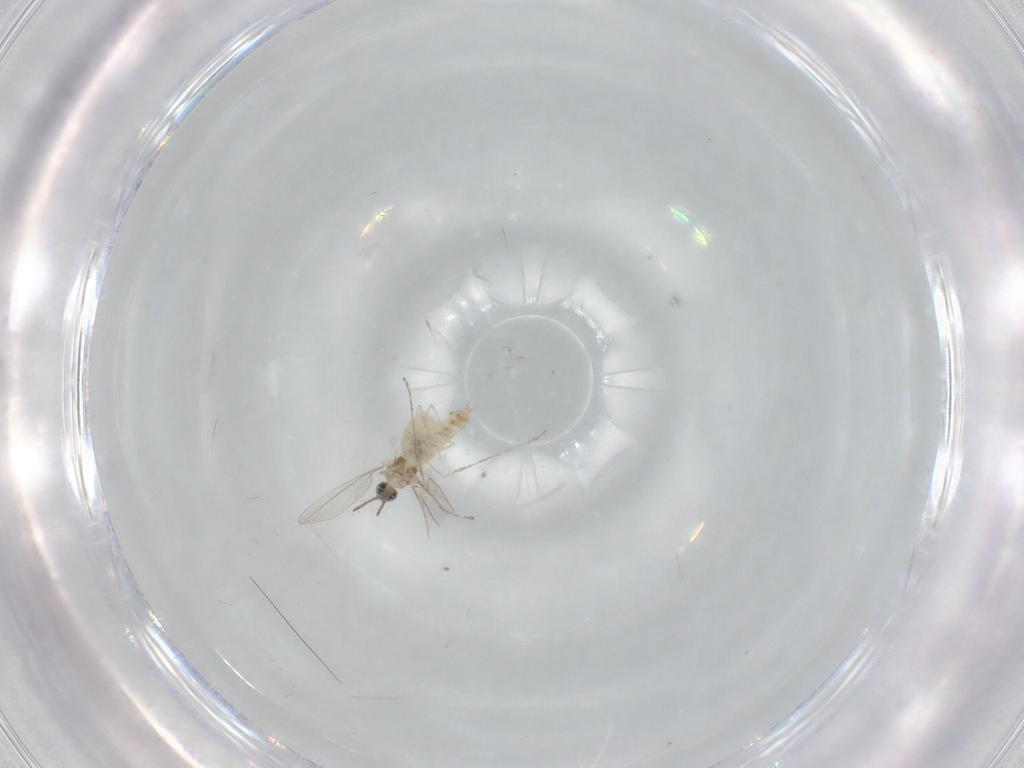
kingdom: Animalia
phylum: Arthropoda
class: Insecta
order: Diptera
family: Cecidomyiidae
